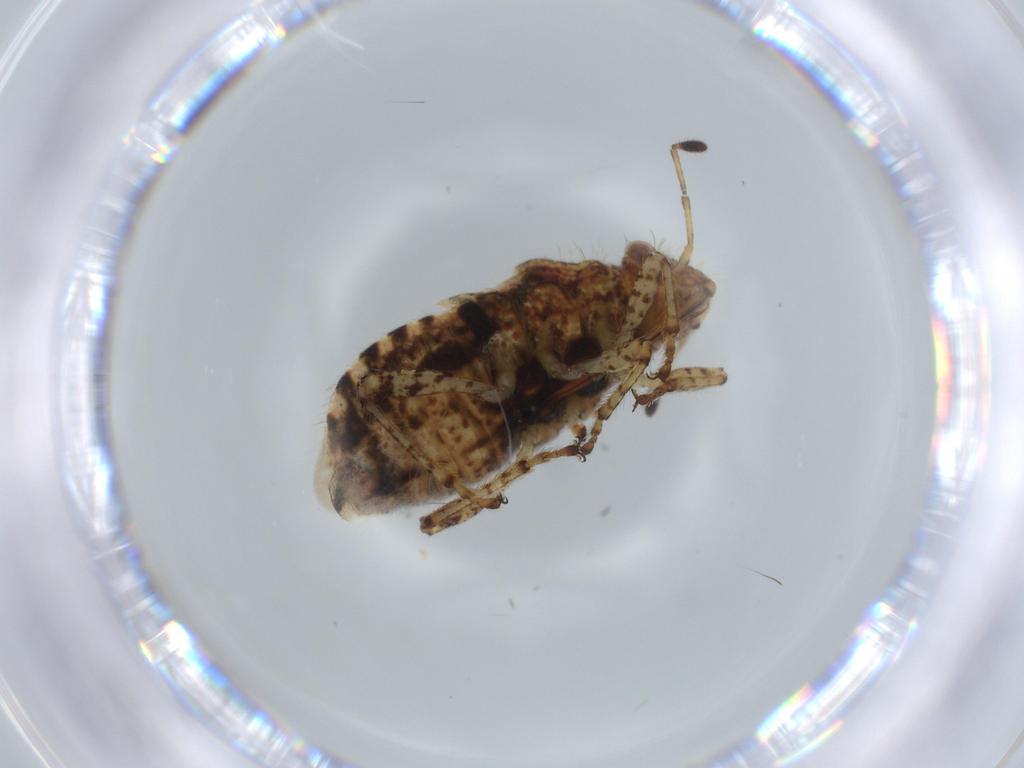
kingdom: Animalia
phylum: Arthropoda
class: Insecta
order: Hemiptera
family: Rhopalidae
